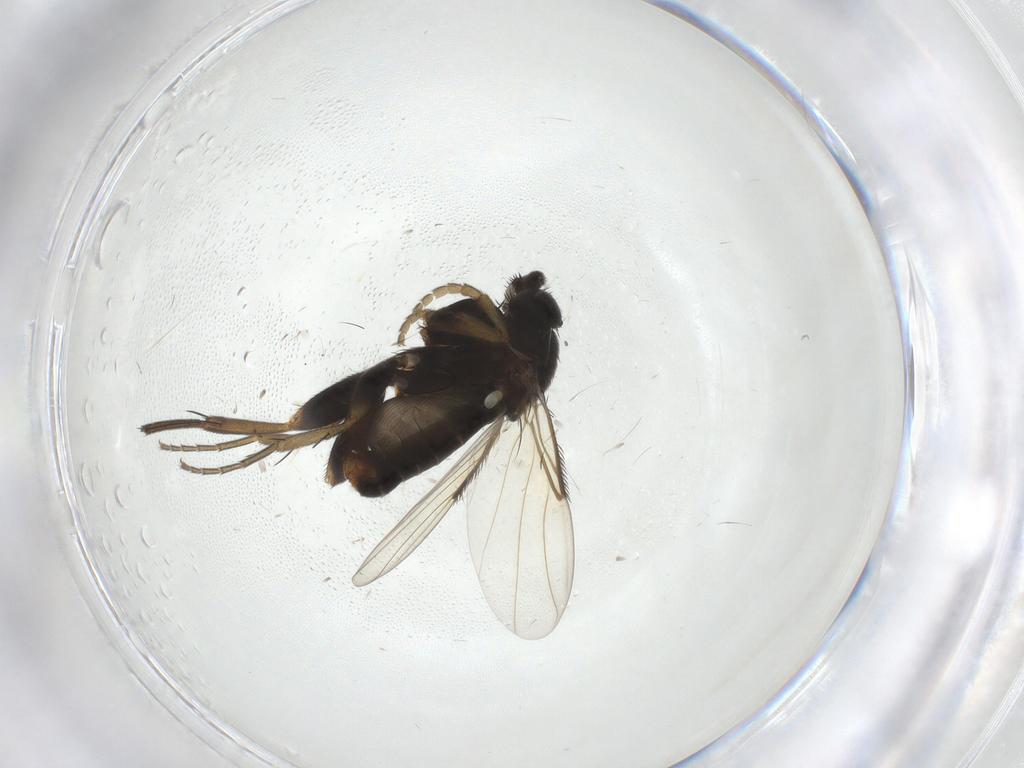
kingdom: Animalia
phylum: Arthropoda
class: Insecta
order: Diptera
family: Phoridae
